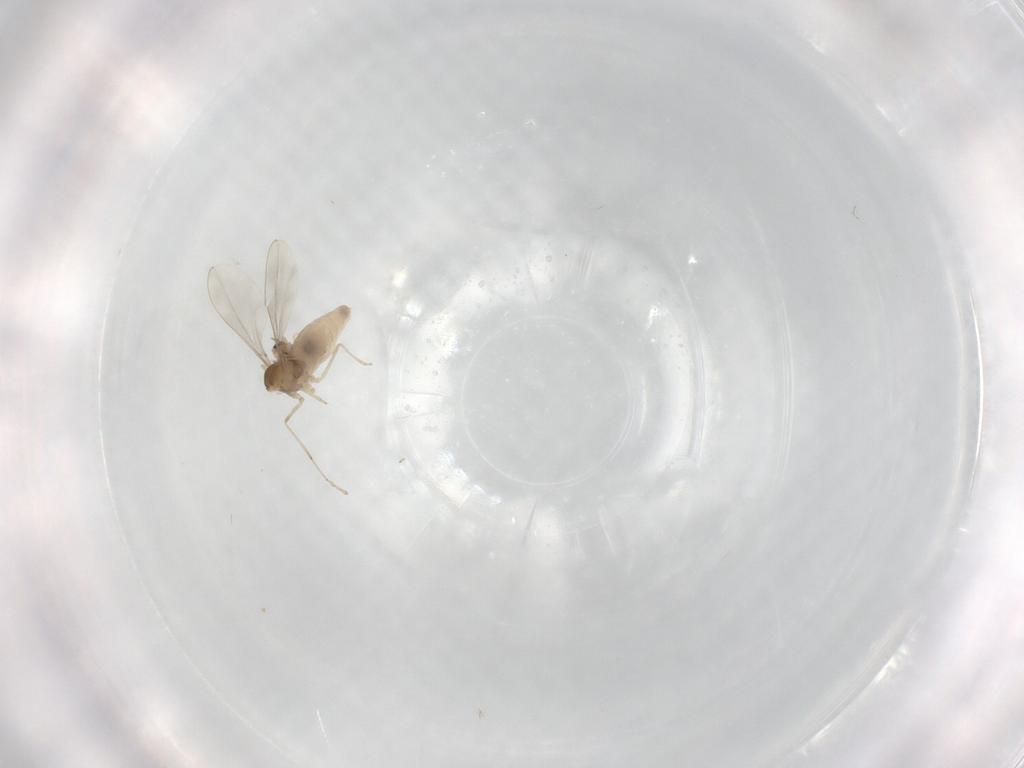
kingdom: Animalia
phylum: Arthropoda
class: Insecta
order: Diptera
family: Cecidomyiidae
